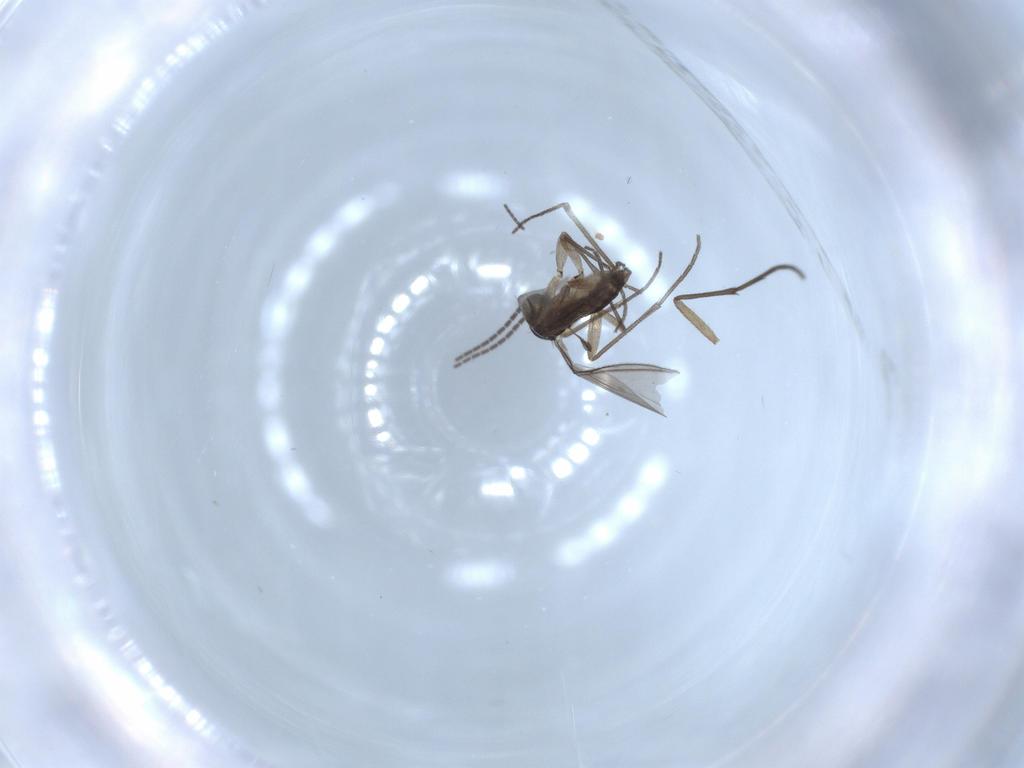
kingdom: Animalia
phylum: Arthropoda
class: Insecta
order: Diptera
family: Sciaridae
